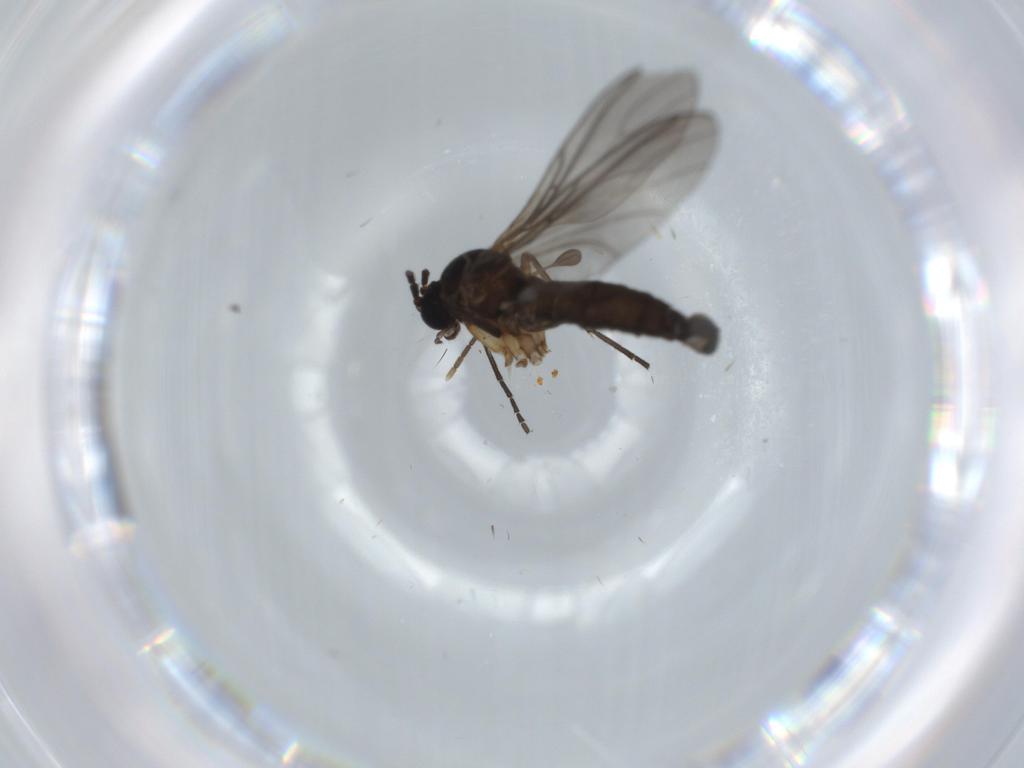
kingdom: Animalia
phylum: Arthropoda
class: Insecta
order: Diptera
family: Sciaridae
